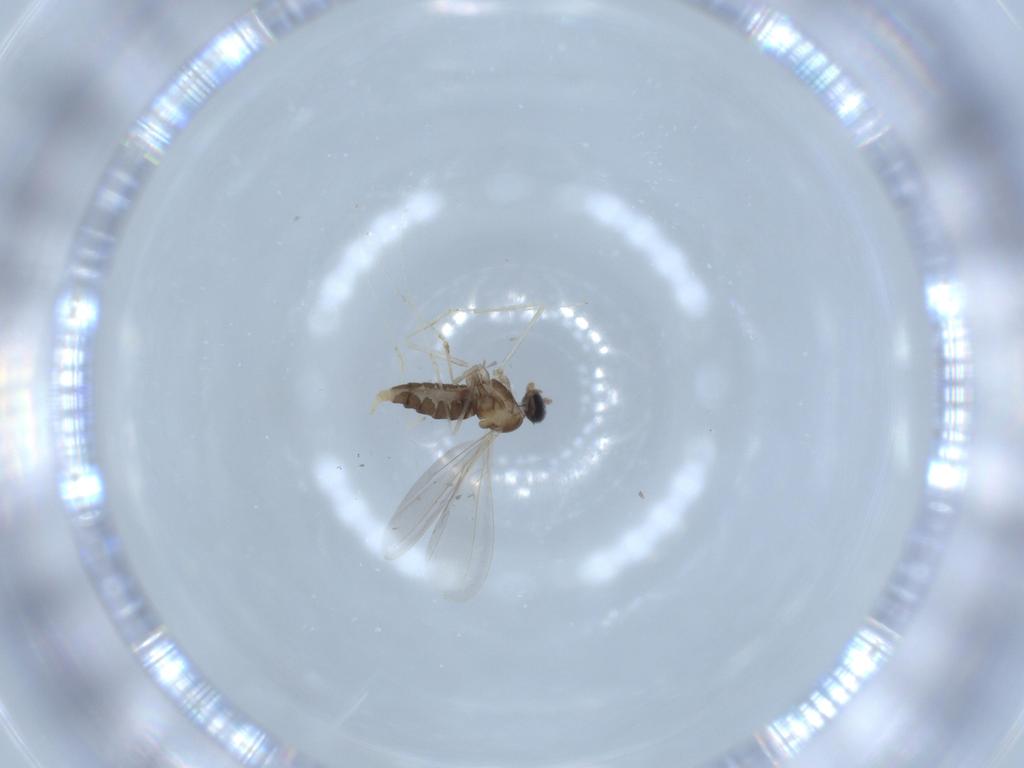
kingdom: Animalia
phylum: Arthropoda
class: Insecta
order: Diptera
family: Cecidomyiidae
